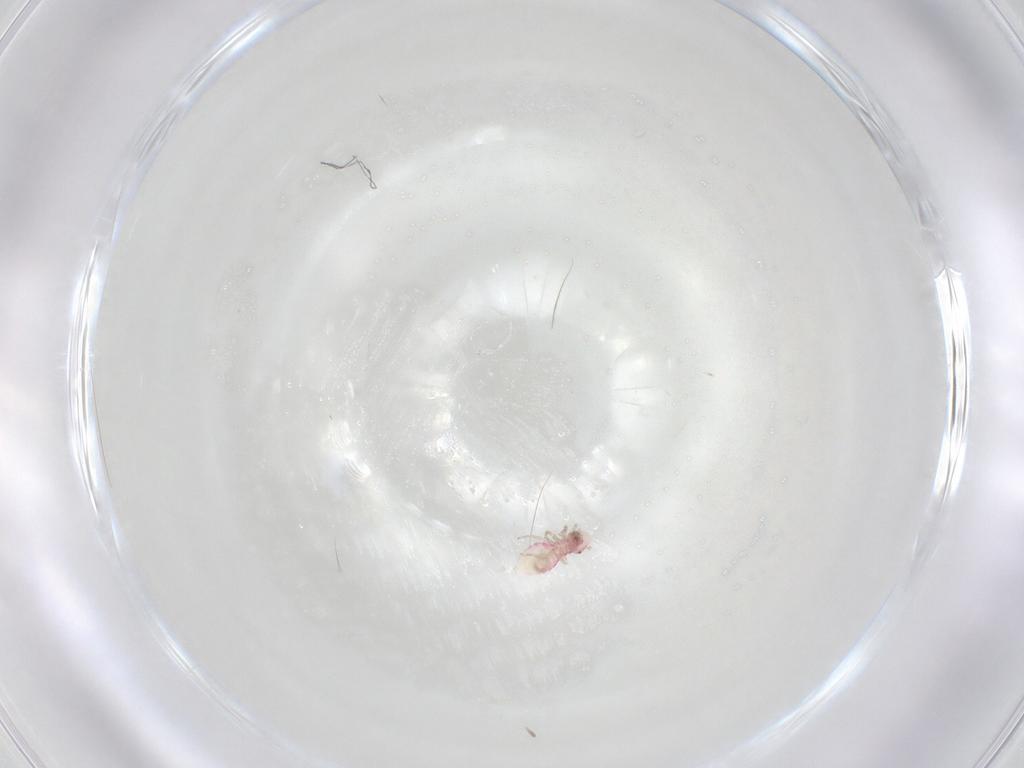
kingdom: Animalia
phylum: Arthropoda
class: Insecta
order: Psocodea
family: Caeciliusidae
